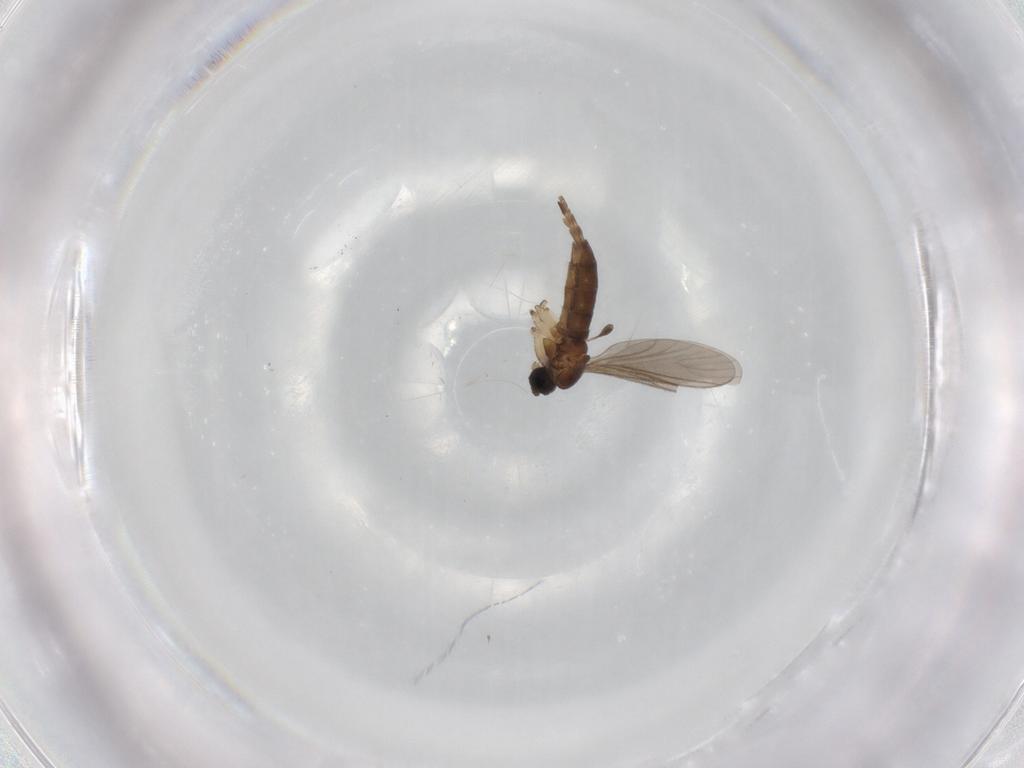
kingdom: Animalia
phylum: Arthropoda
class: Insecta
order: Diptera
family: Sciaridae
